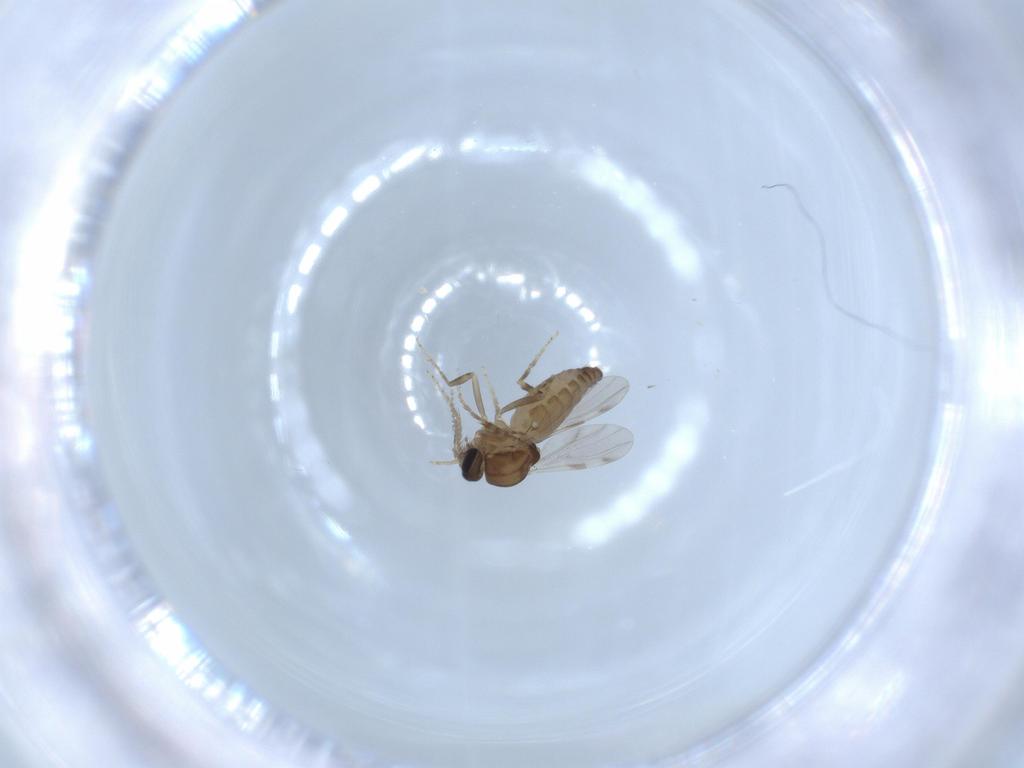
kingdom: Animalia
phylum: Arthropoda
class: Insecta
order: Diptera
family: Ceratopogonidae
